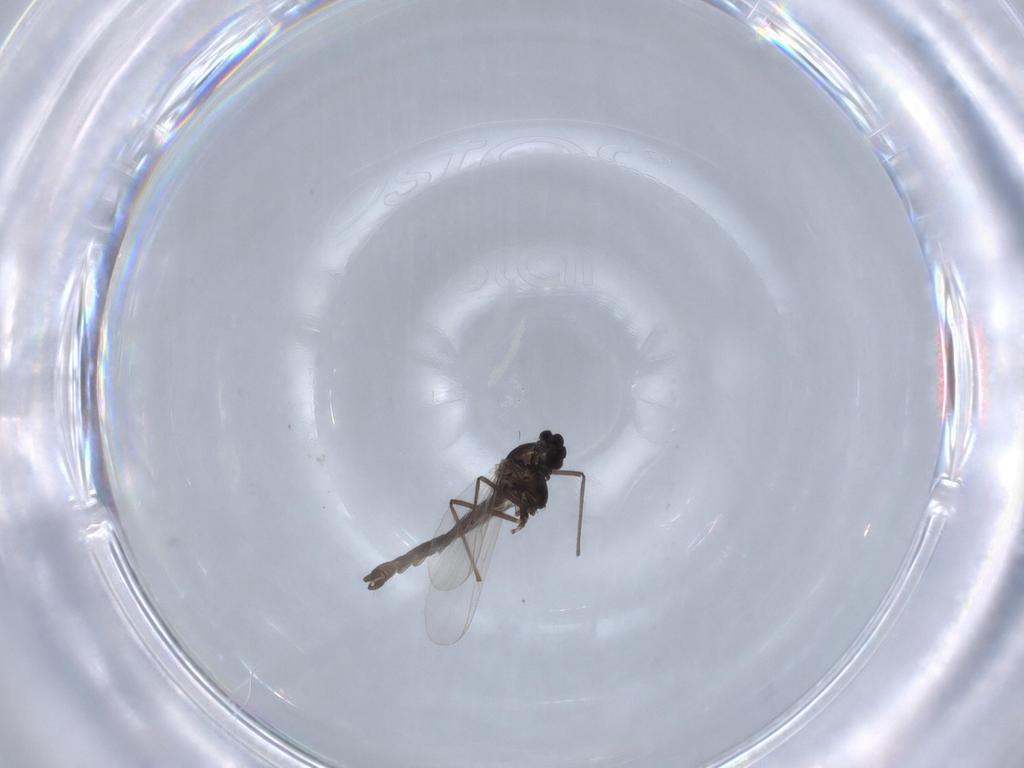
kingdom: Animalia
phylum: Arthropoda
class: Insecta
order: Diptera
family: Chironomidae
